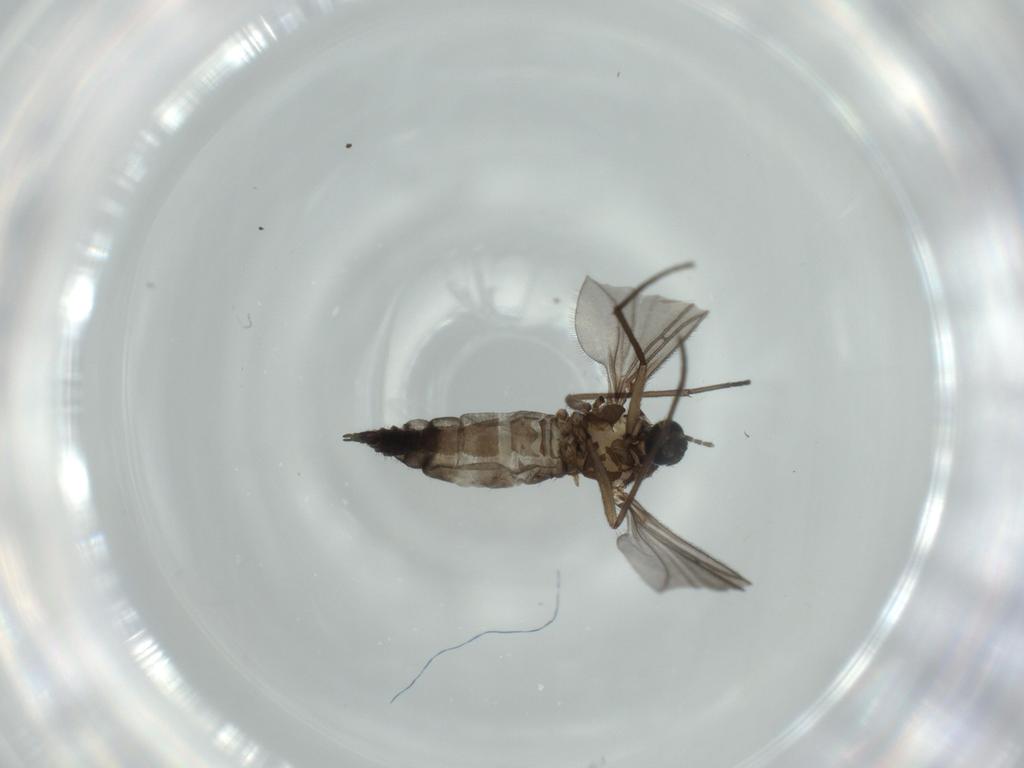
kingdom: Animalia
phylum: Arthropoda
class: Insecta
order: Diptera
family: Sciaridae
